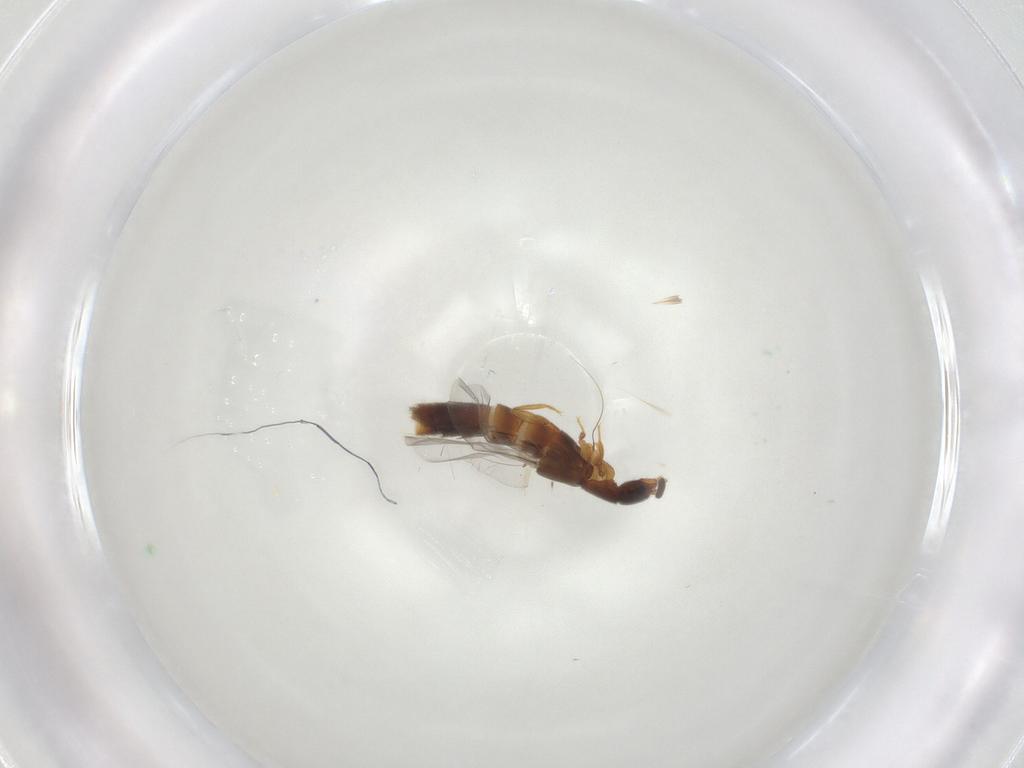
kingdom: Animalia
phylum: Arthropoda
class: Insecta
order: Coleoptera
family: Staphylinidae
